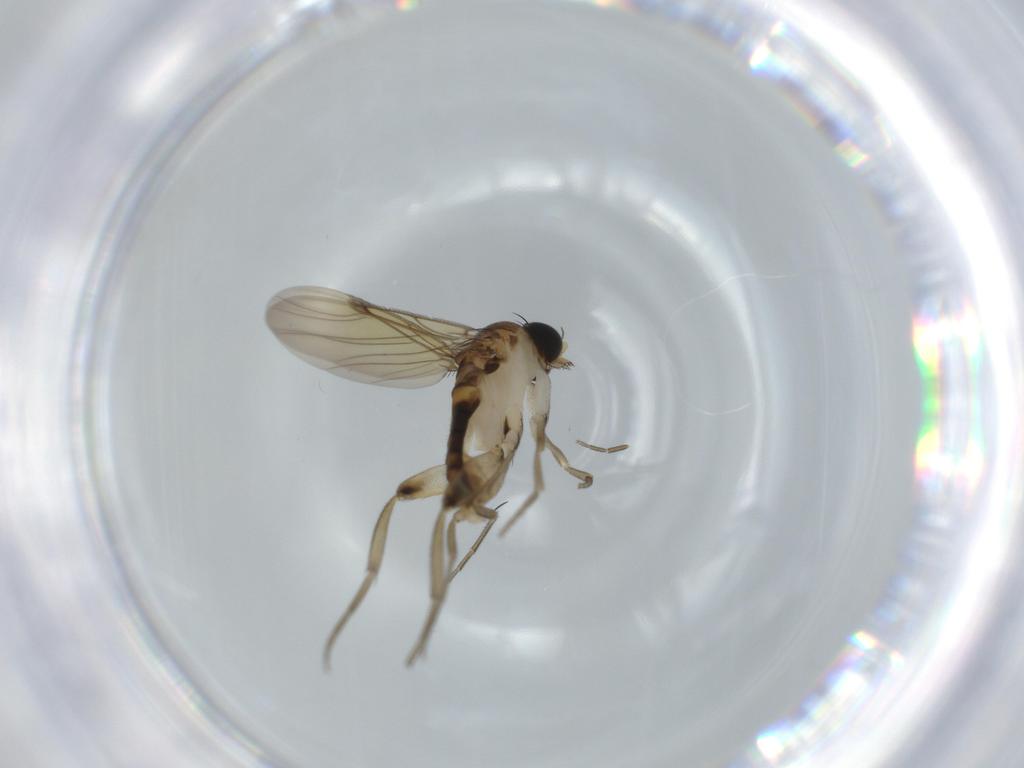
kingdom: Animalia
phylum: Arthropoda
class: Insecta
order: Diptera
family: Phoridae
